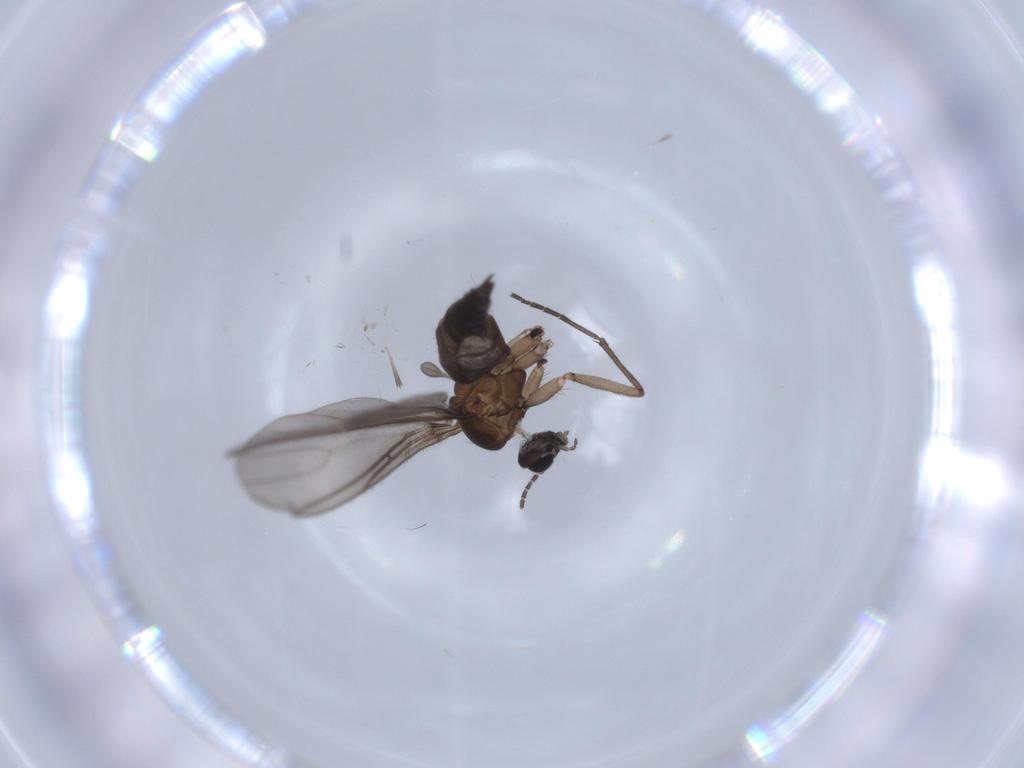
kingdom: Animalia
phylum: Arthropoda
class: Insecta
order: Diptera
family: Sciaridae
